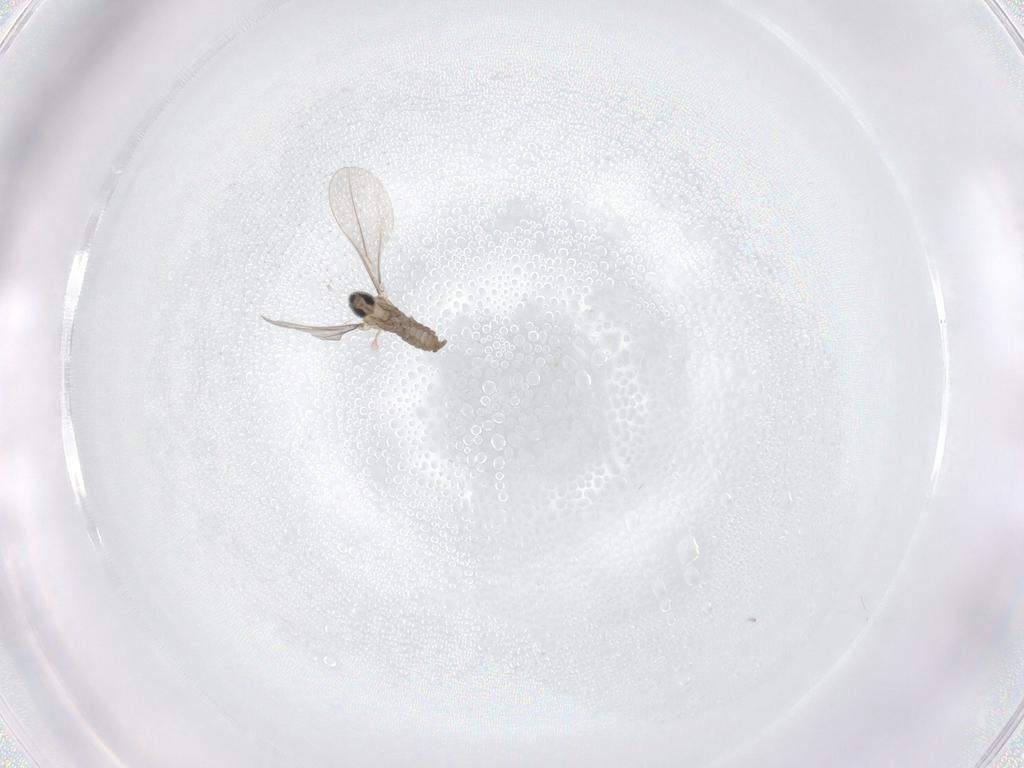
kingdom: Animalia
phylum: Arthropoda
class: Insecta
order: Diptera
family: Cecidomyiidae
